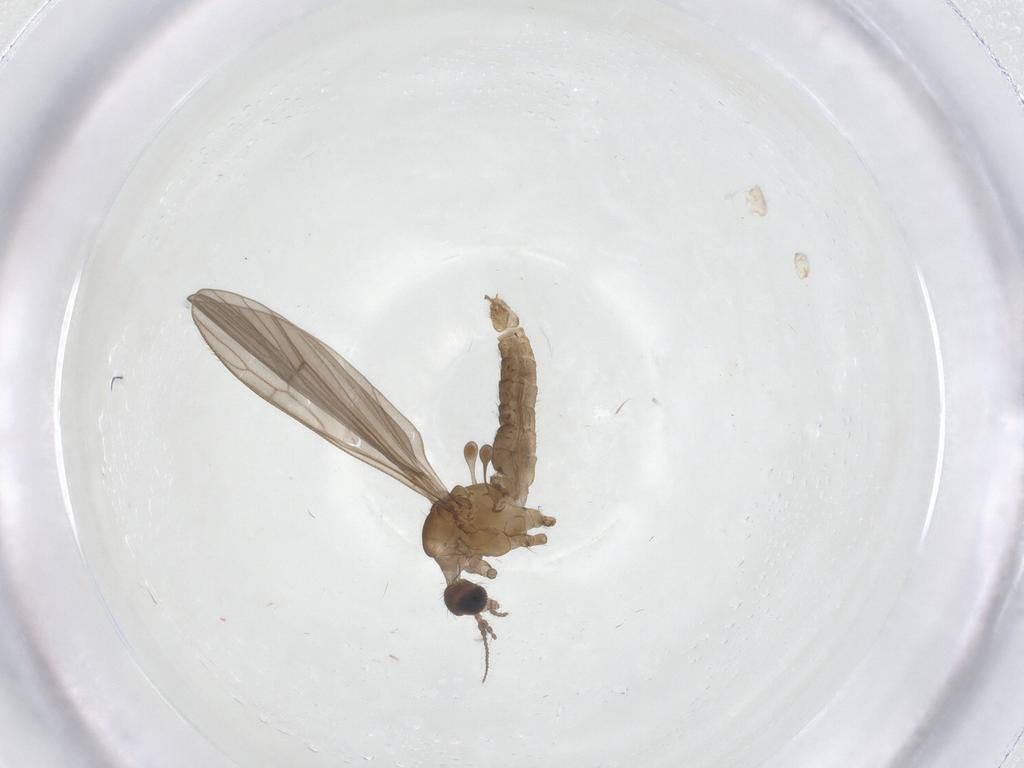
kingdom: Animalia
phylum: Arthropoda
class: Insecta
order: Diptera
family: Dolichopodidae
